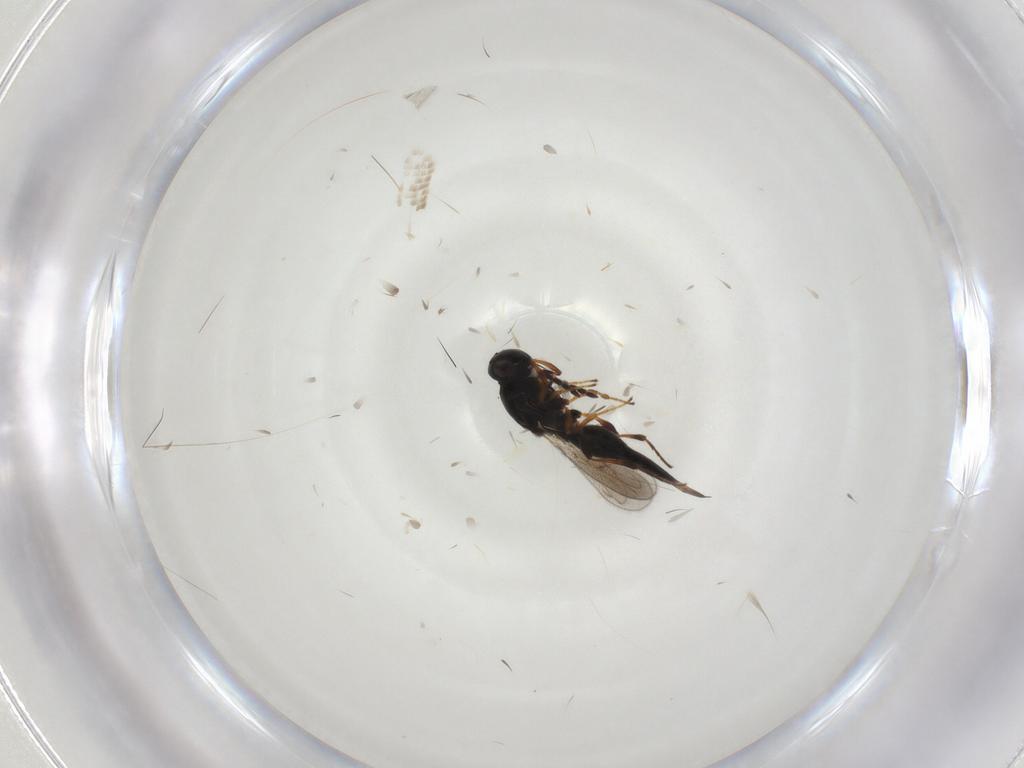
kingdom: Animalia
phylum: Arthropoda
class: Insecta
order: Hymenoptera
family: Platygastridae
